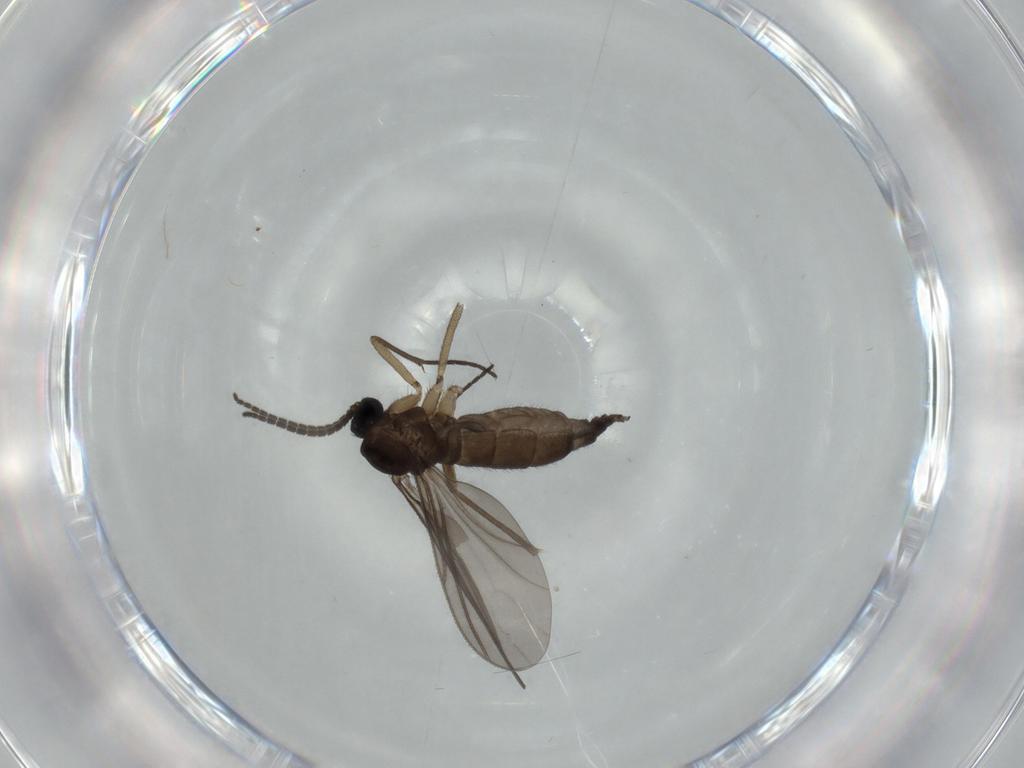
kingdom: Animalia
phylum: Arthropoda
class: Insecta
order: Diptera
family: Sciaridae
